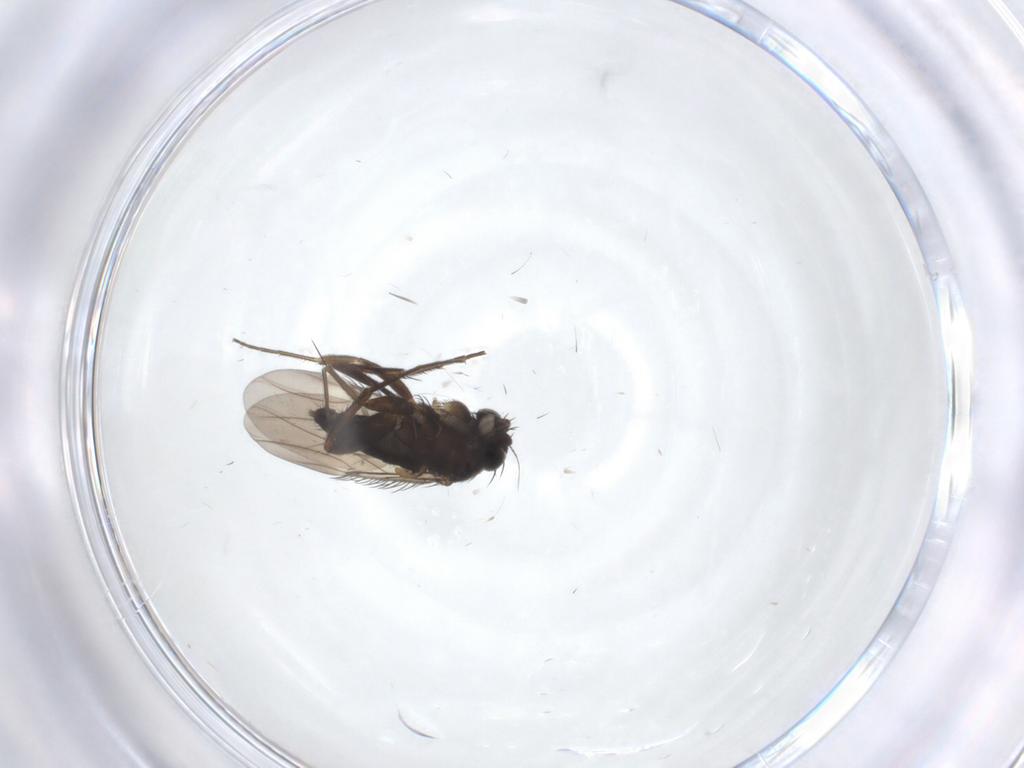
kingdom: Animalia
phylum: Arthropoda
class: Insecta
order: Diptera
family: Phoridae
